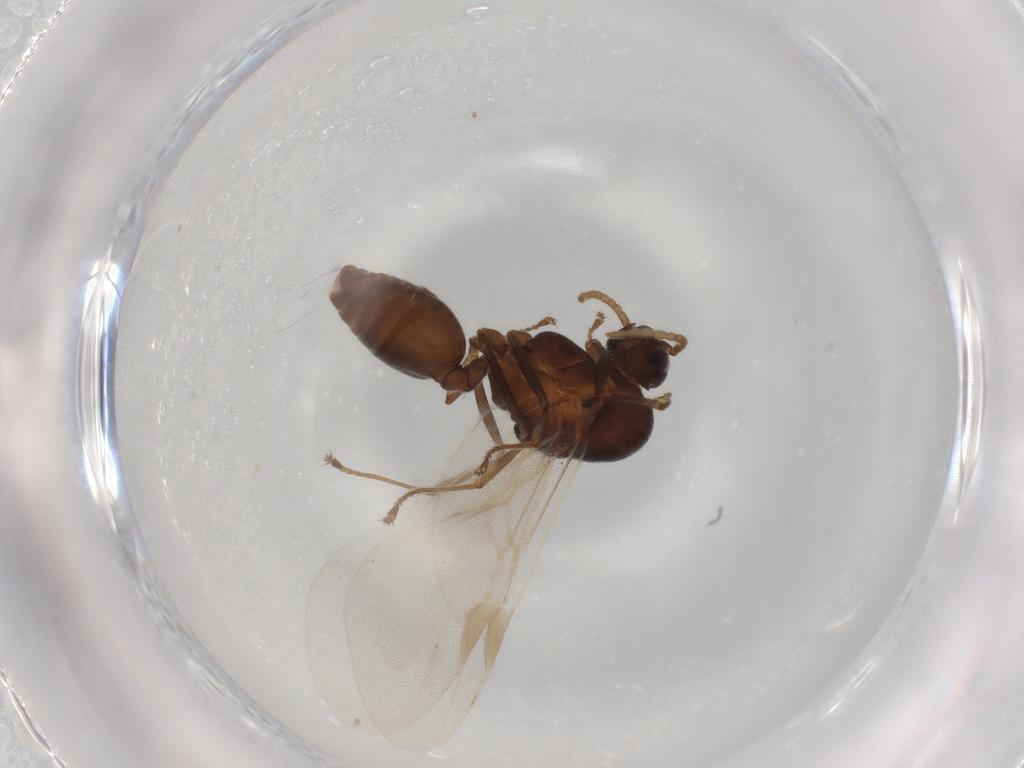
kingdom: Animalia
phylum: Arthropoda
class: Insecta
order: Hymenoptera
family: Formicidae
